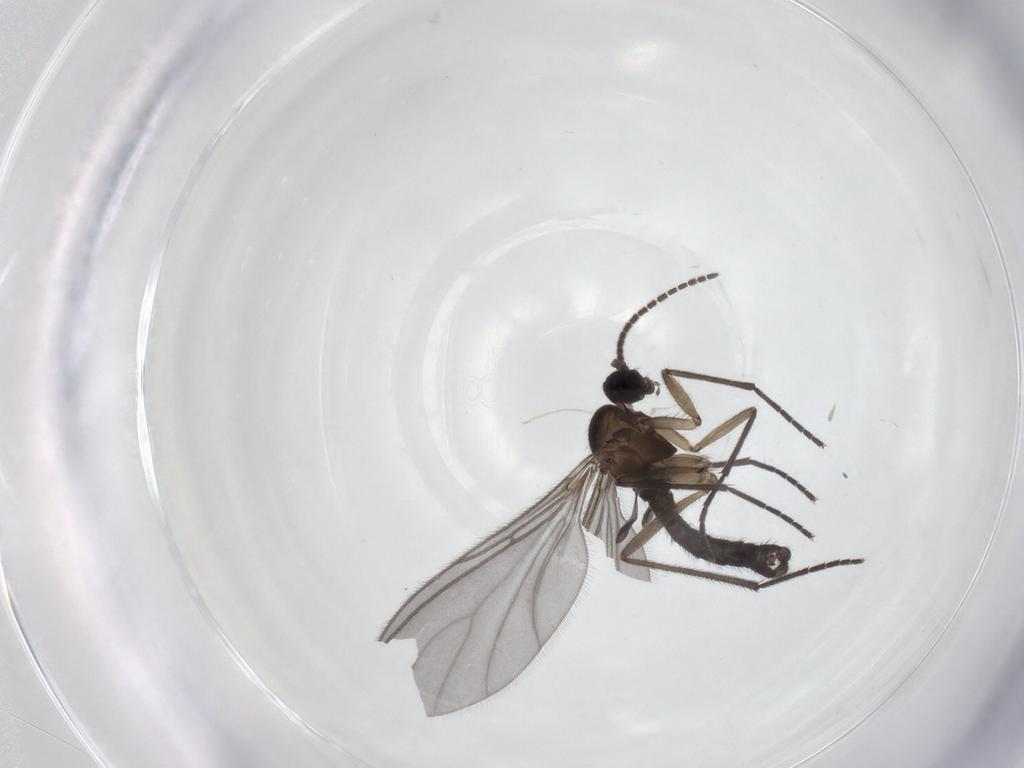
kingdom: Animalia
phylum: Arthropoda
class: Insecta
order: Diptera
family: Sciaridae
